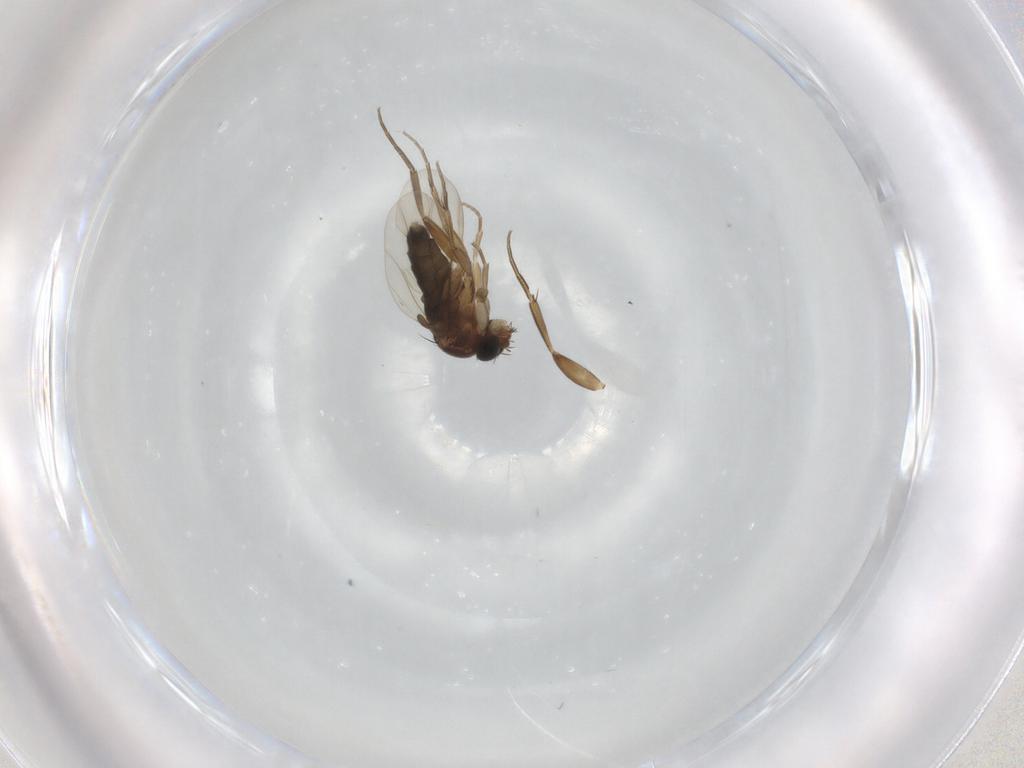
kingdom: Animalia
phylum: Arthropoda
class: Insecta
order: Diptera
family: Phoridae
